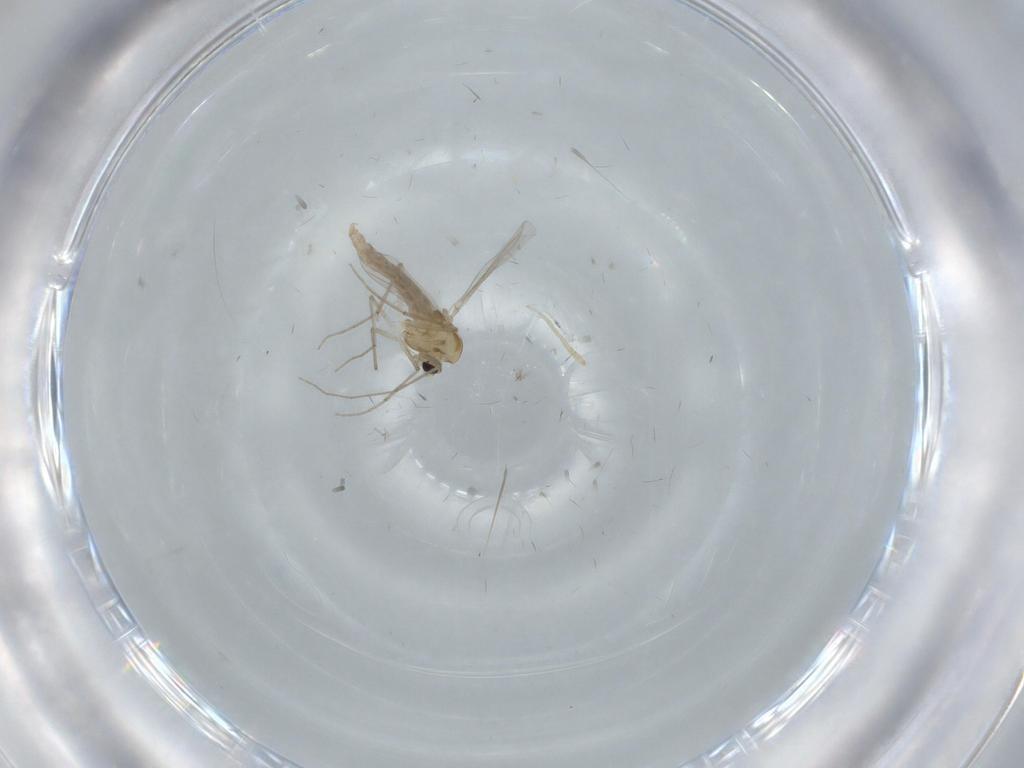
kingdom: Animalia
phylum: Arthropoda
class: Insecta
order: Diptera
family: Chironomidae
